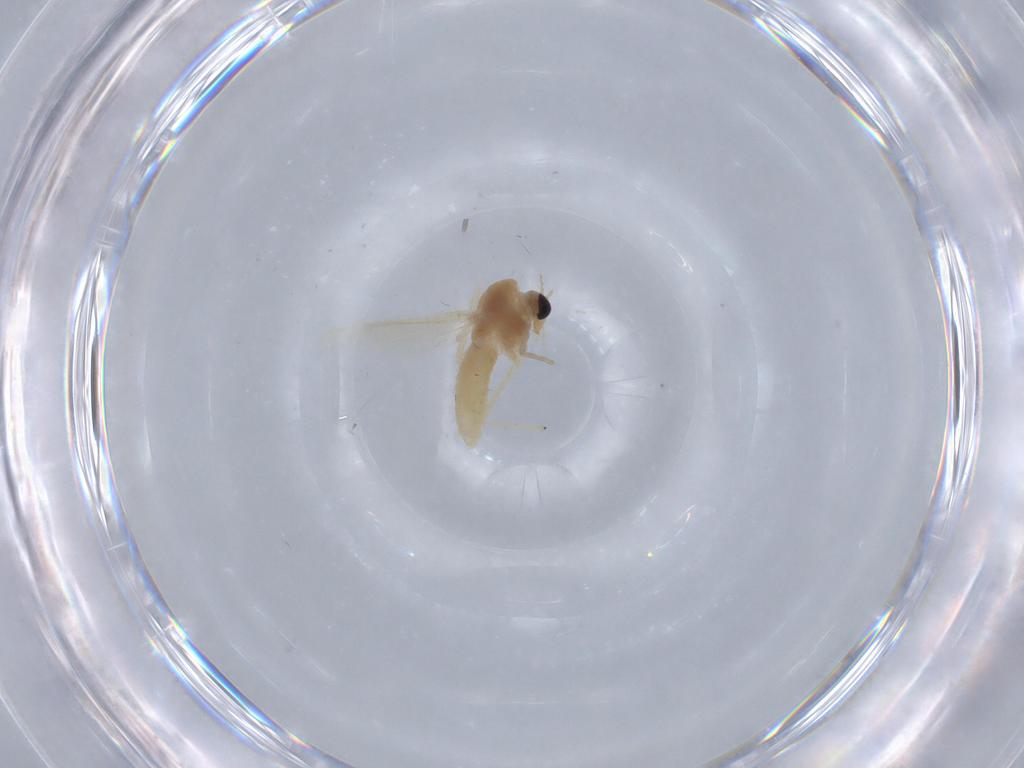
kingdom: Animalia
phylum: Arthropoda
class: Insecta
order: Diptera
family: Chironomidae
